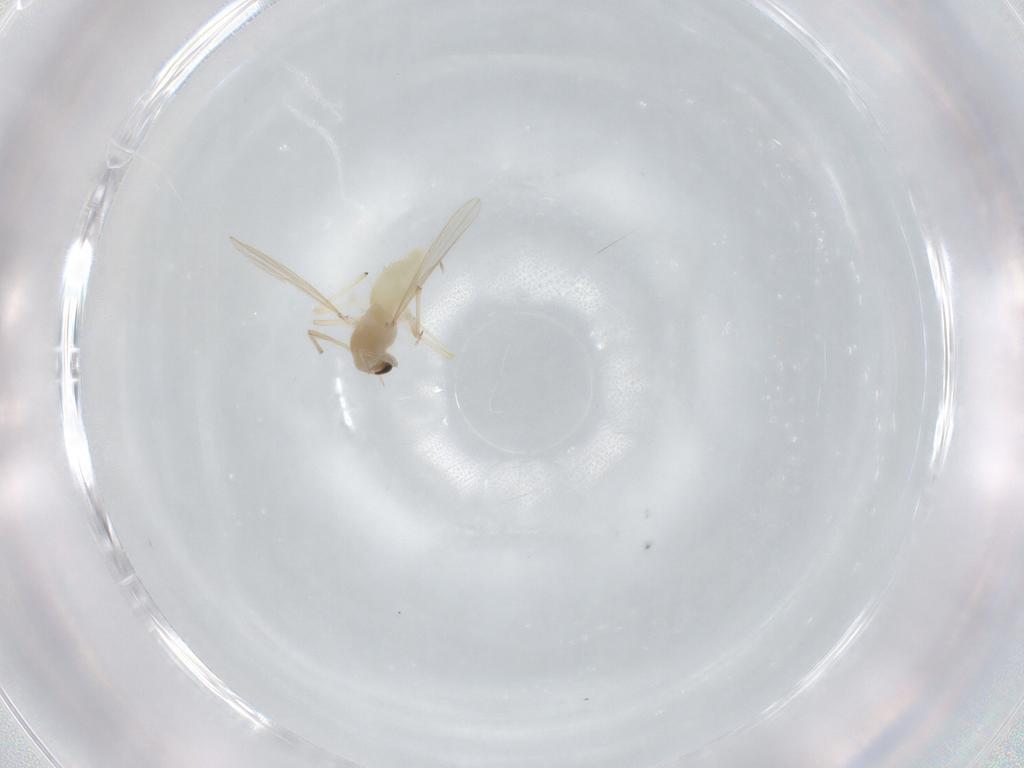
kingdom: Animalia
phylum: Arthropoda
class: Insecta
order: Diptera
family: Chironomidae
